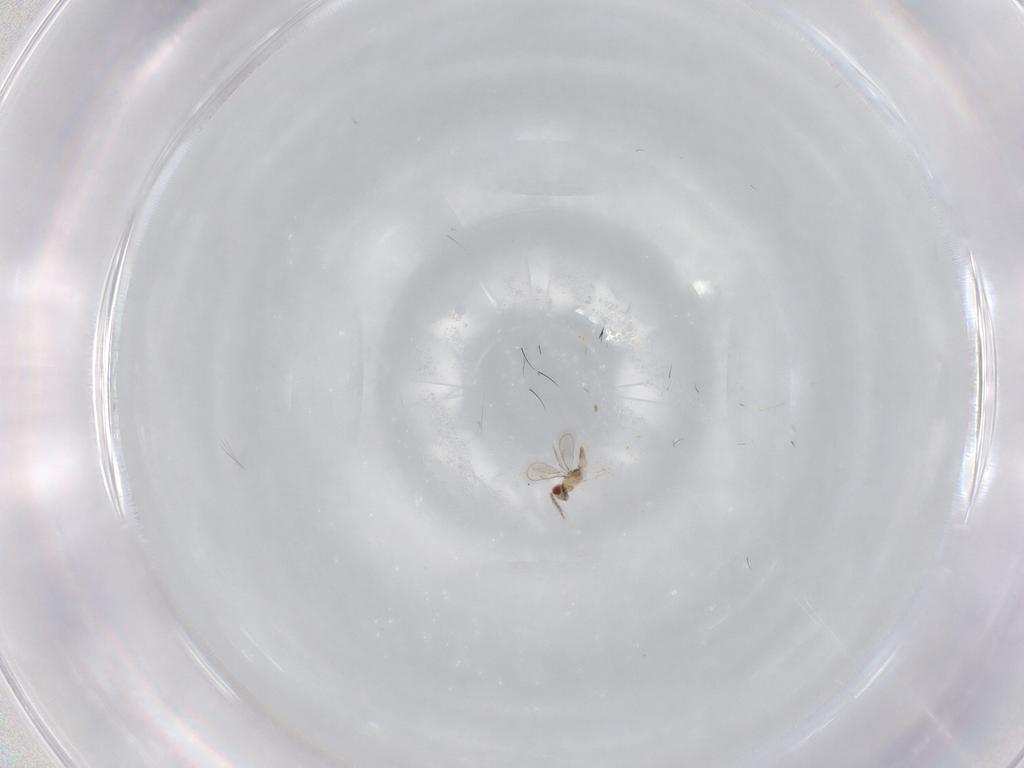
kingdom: Animalia
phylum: Arthropoda
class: Insecta
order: Hymenoptera
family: Eulophidae
